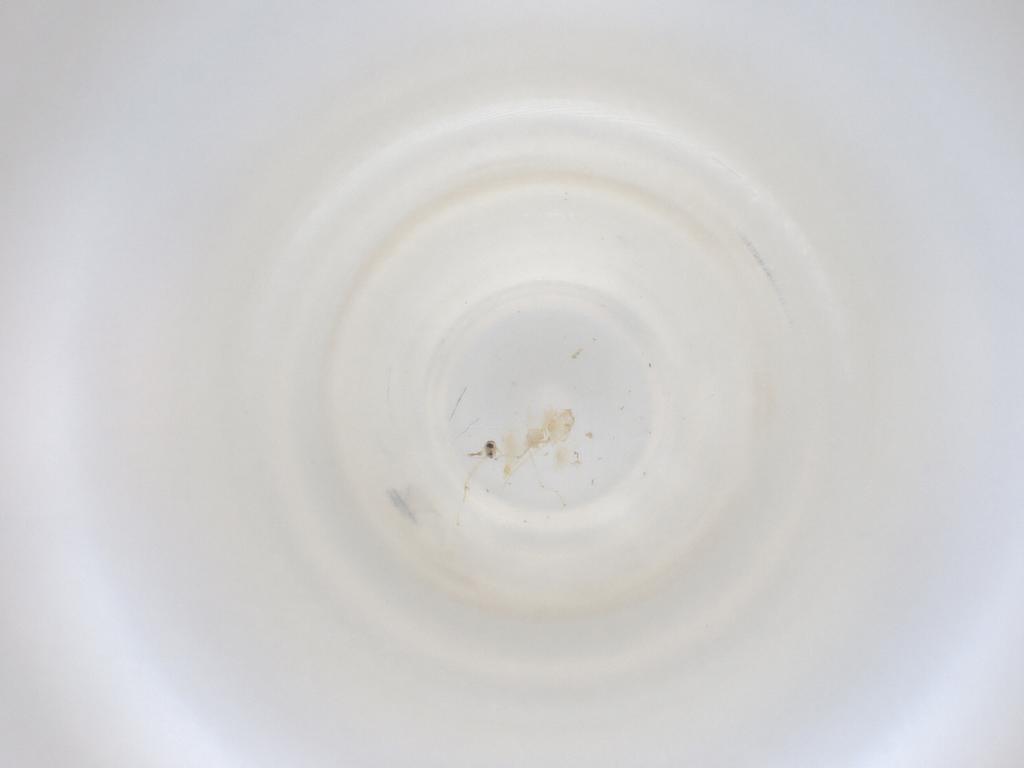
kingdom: Animalia
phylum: Arthropoda
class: Insecta
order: Diptera
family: Cecidomyiidae
